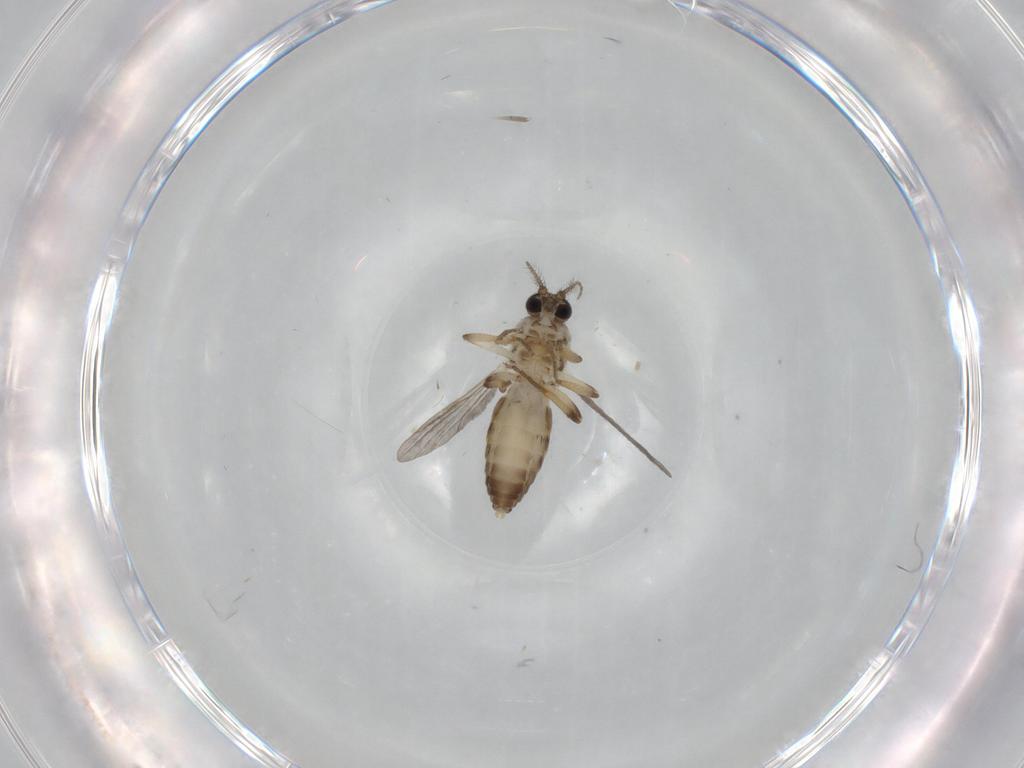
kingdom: Animalia
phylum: Arthropoda
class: Insecta
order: Diptera
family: Ceratopogonidae
